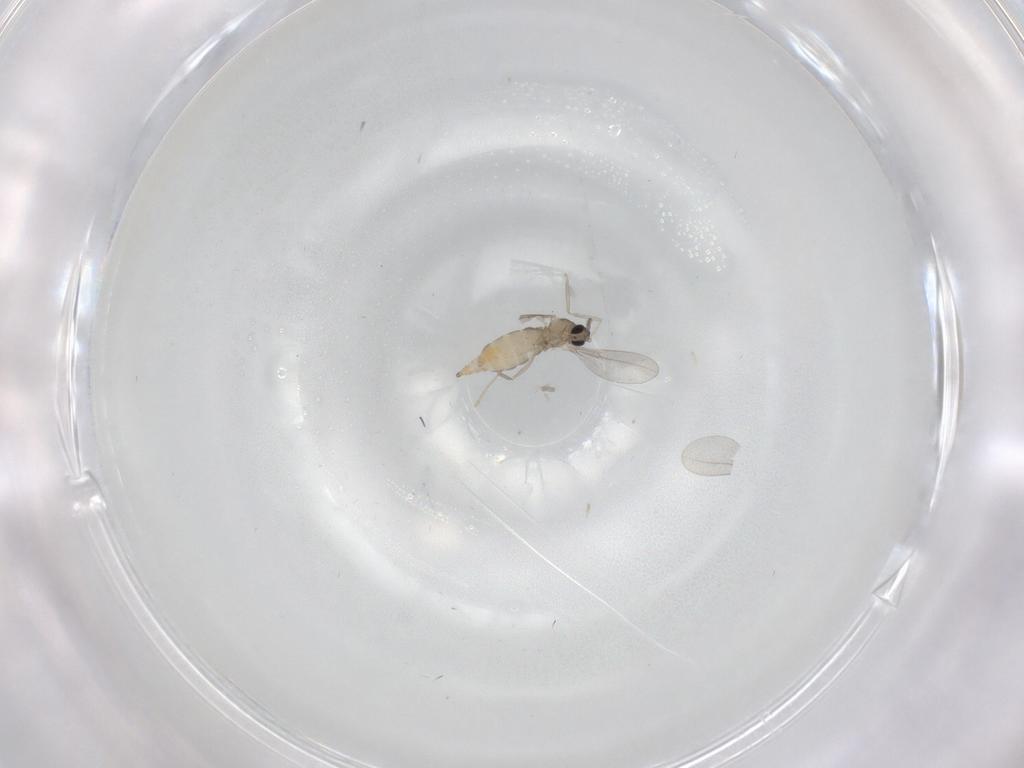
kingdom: Animalia
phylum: Arthropoda
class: Insecta
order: Diptera
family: Cecidomyiidae
